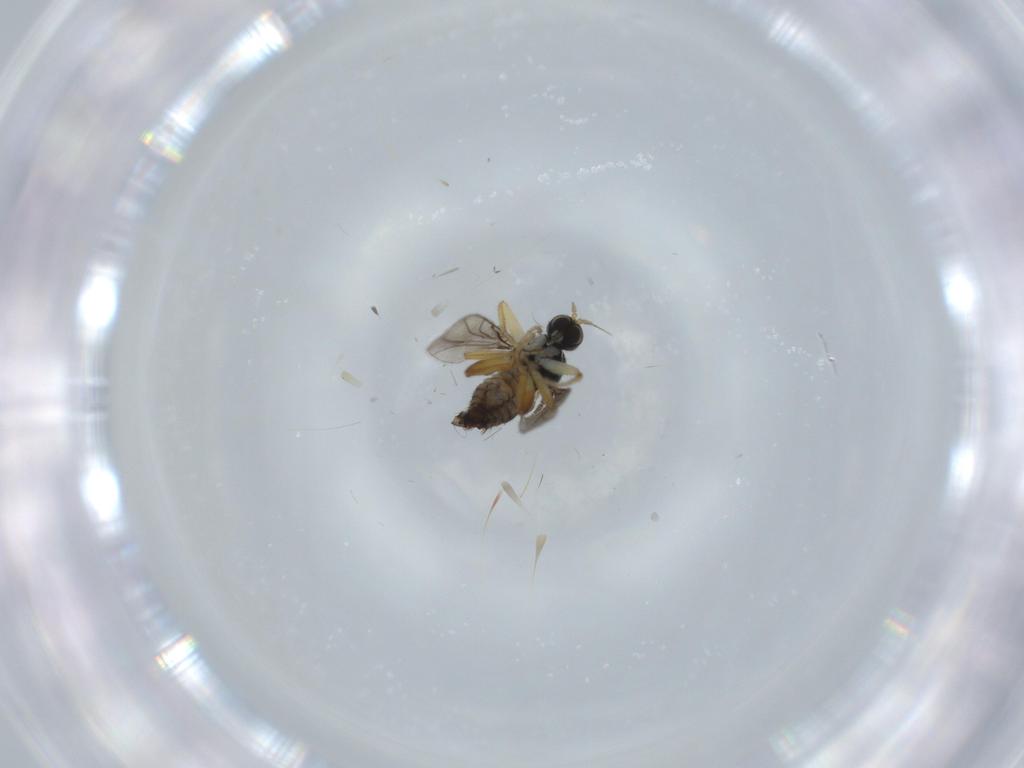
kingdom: Animalia
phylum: Arthropoda
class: Insecta
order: Diptera
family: Hybotidae
